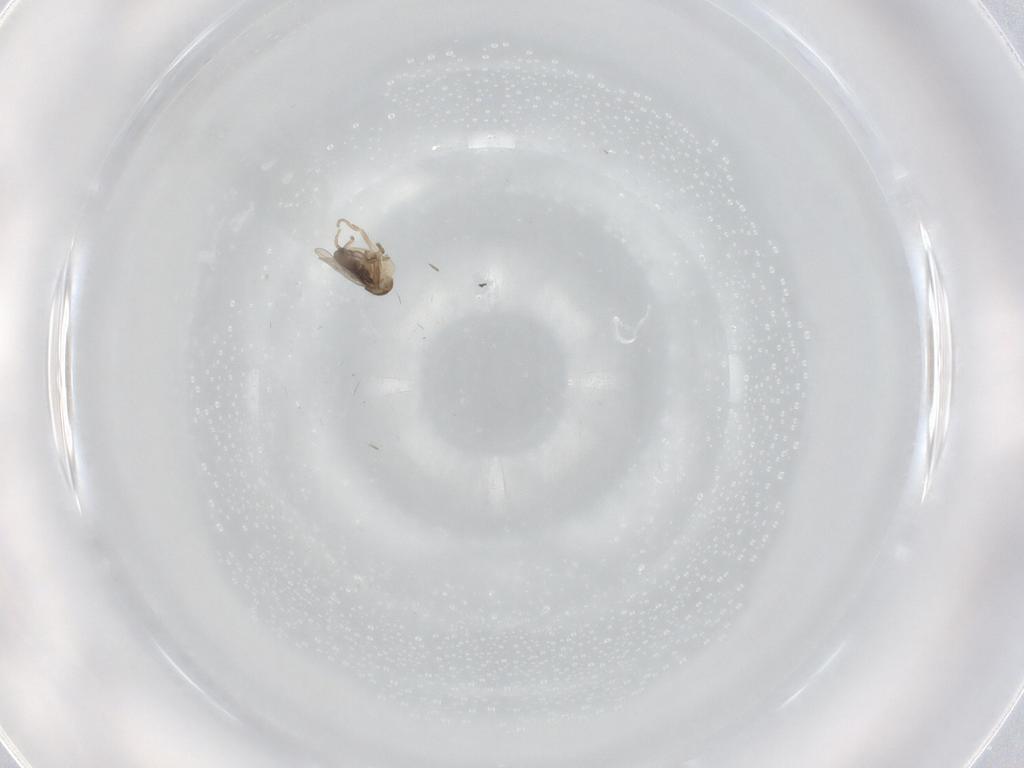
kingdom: Animalia
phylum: Arthropoda
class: Insecta
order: Diptera
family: Phoridae
